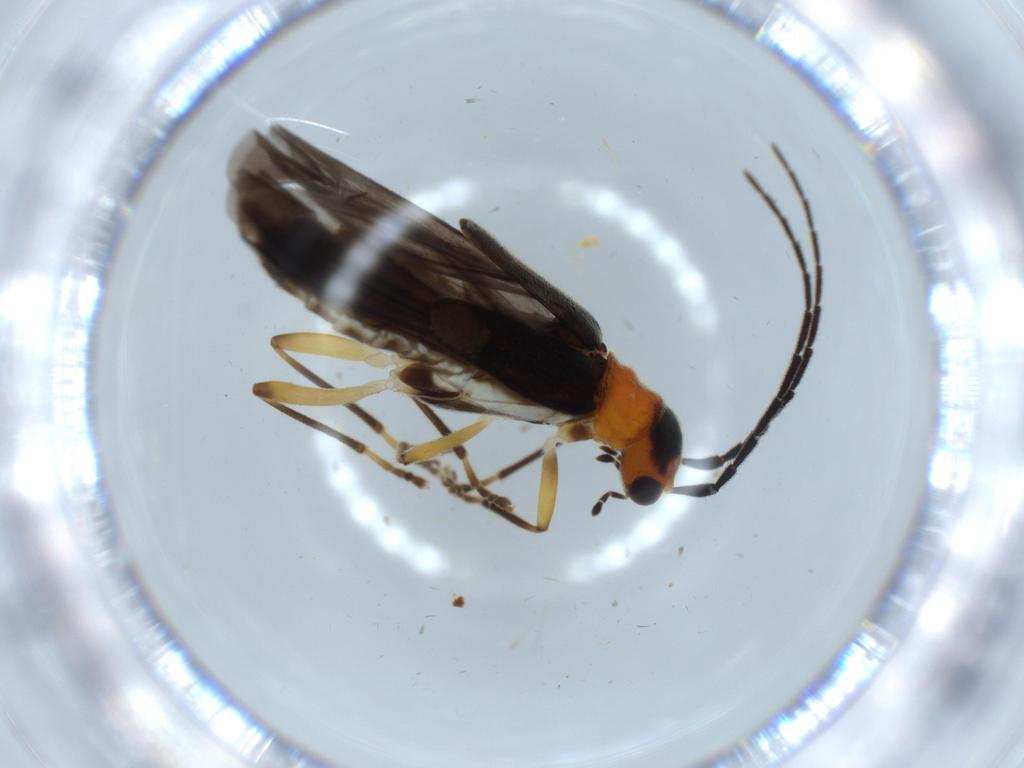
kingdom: Animalia
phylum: Arthropoda
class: Insecta
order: Coleoptera
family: Cantharidae
